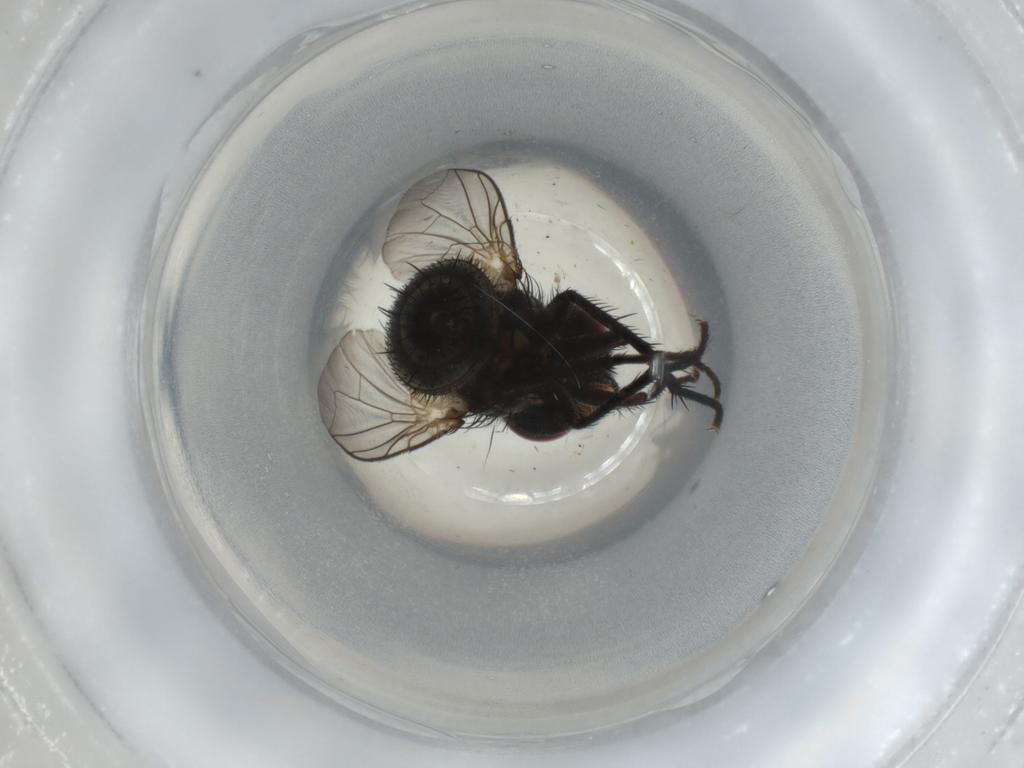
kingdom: Animalia
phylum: Arthropoda
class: Insecta
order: Diptera
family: Tachinidae
